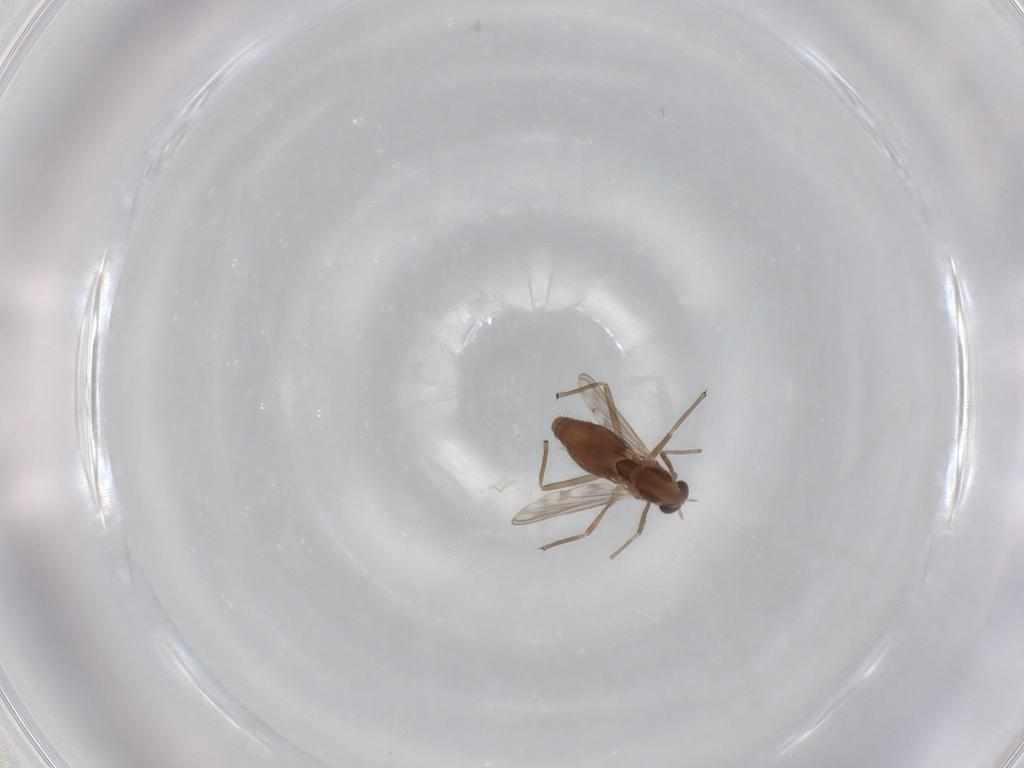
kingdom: Animalia
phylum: Arthropoda
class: Insecta
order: Diptera
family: Chironomidae
